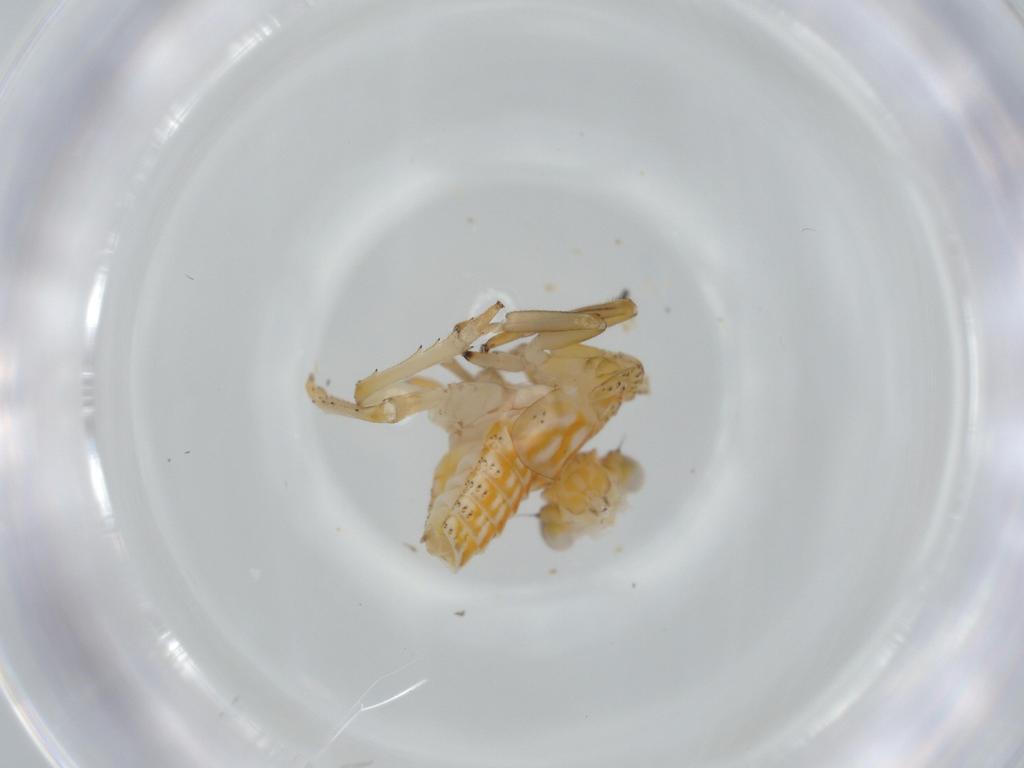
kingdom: Animalia
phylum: Arthropoda
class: Insecta
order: Hemiptera
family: Issidae
